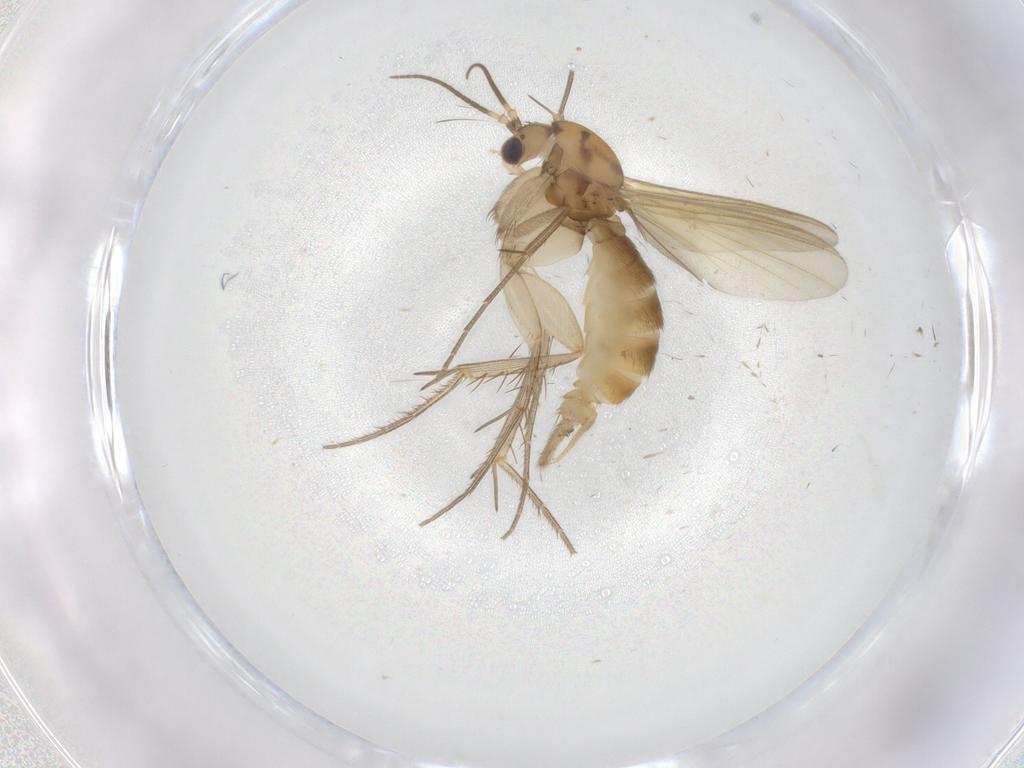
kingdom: Animalia
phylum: Arthropoda
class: Insecta
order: Diptera
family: Mycetophilidae
